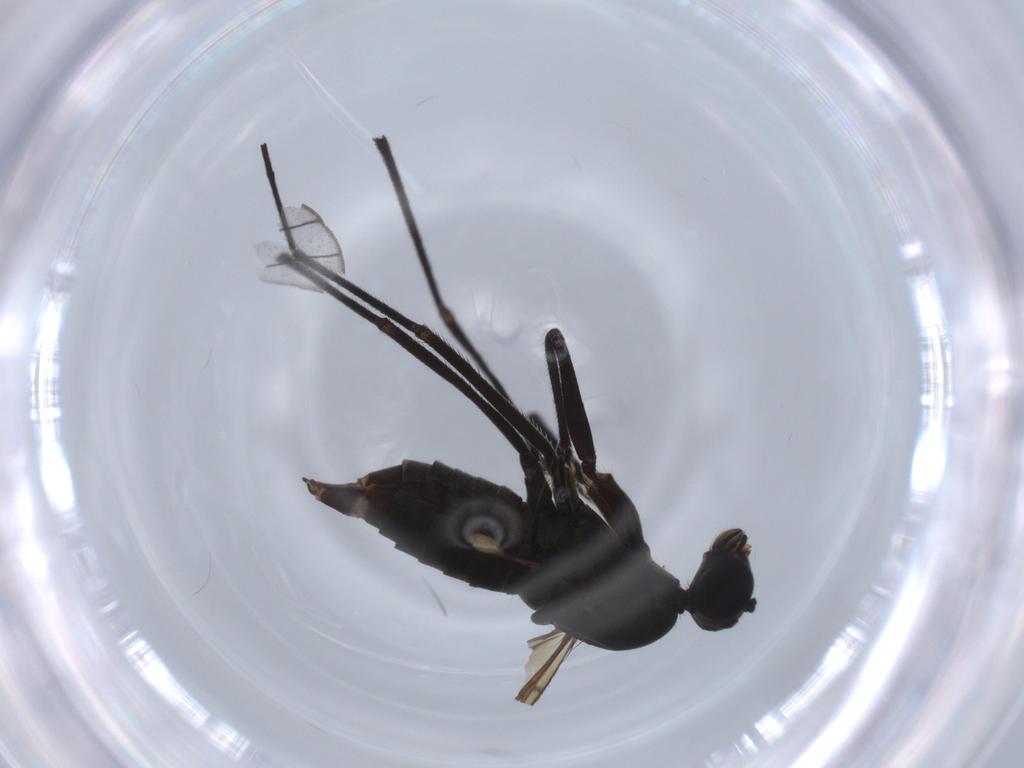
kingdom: Animalia
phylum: Arthropoda
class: Insecta
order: Diptera
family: Empididae
